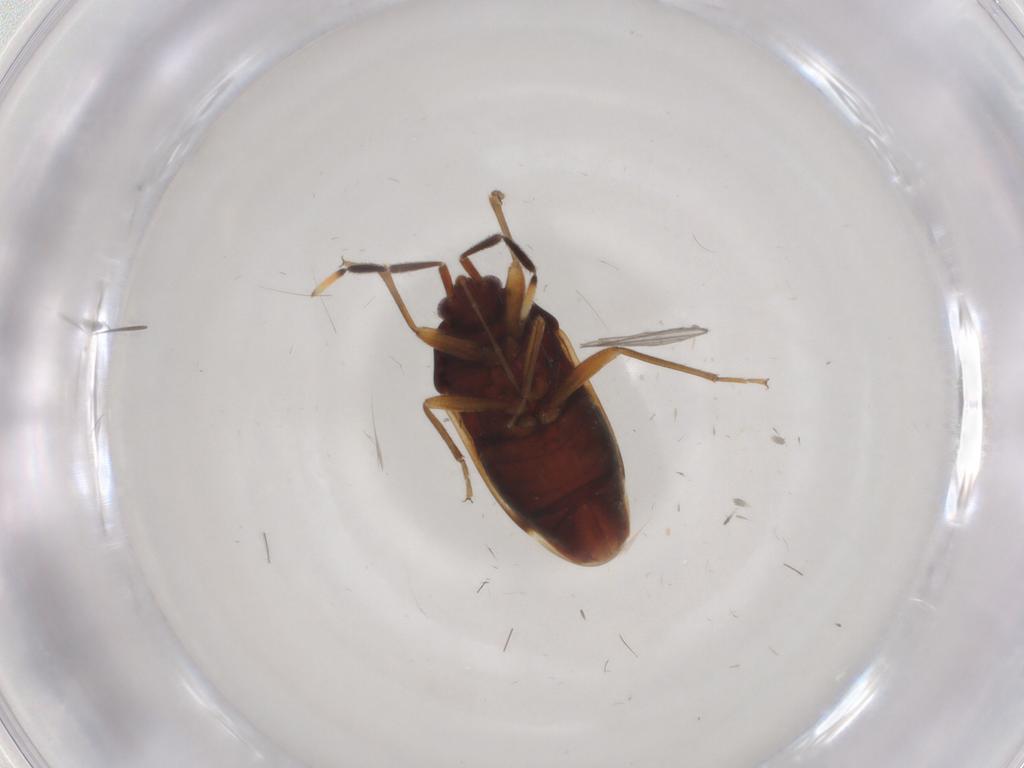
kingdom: Animalia
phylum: Arthropoda
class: Insecta
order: Hemiptera
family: Rhyparochromidae
